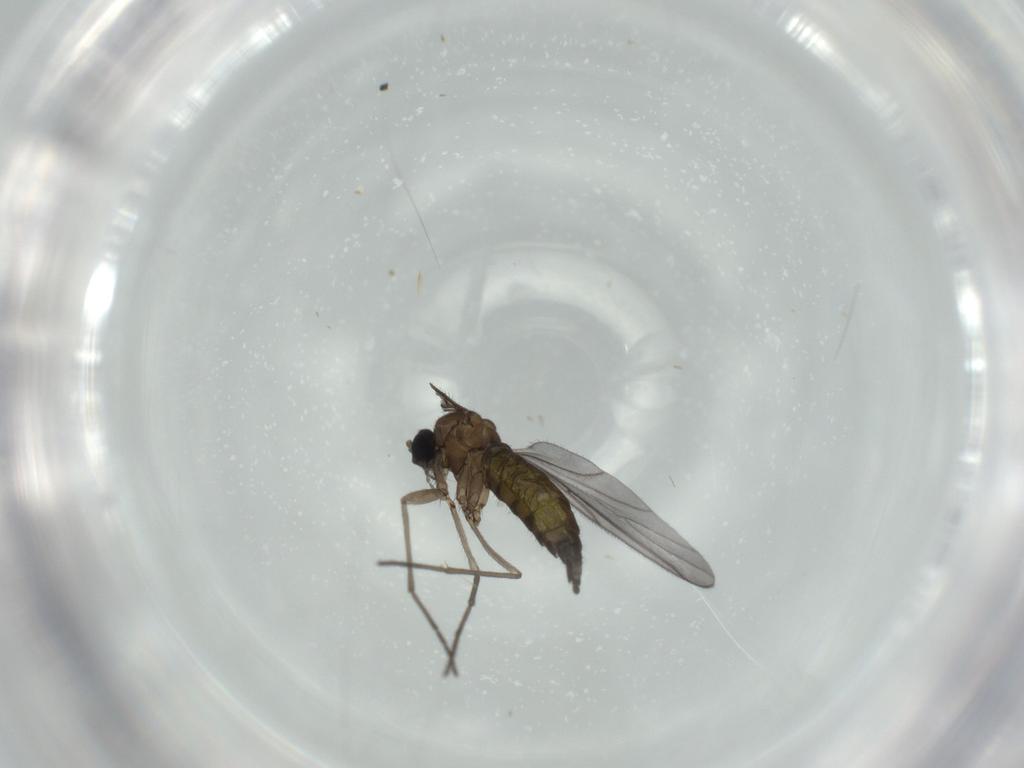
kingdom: Animalia
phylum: Arthropoda
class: Insecta
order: Diptera
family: Sciaridae
